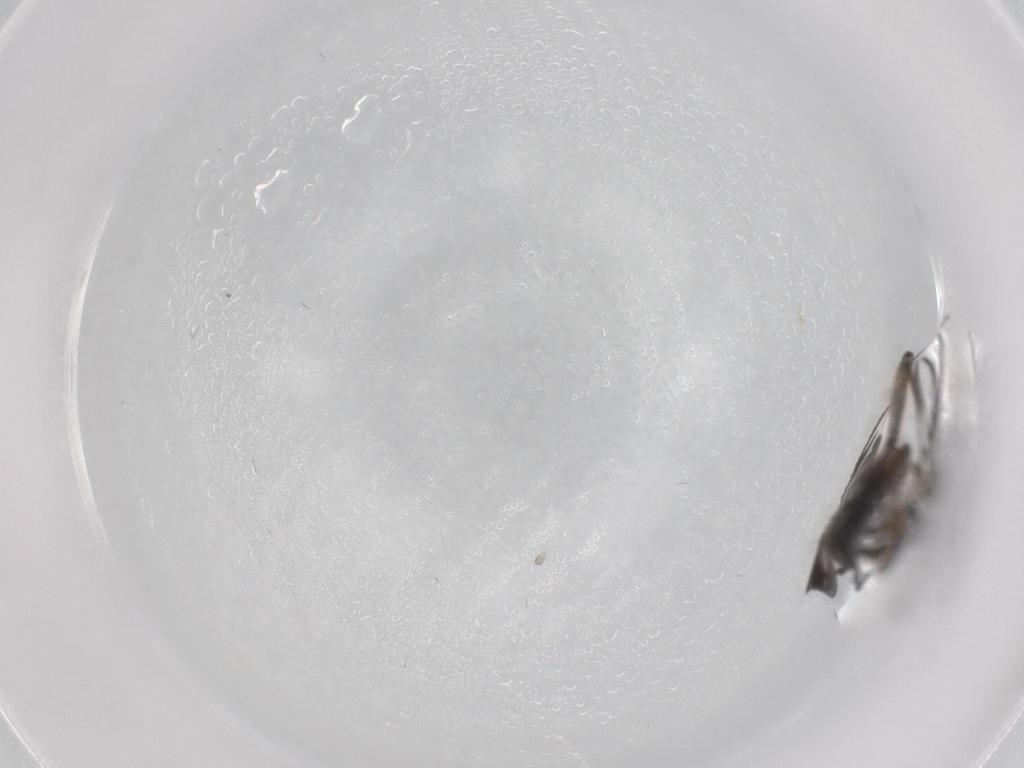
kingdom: Animalia
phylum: Arthropoda
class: Insecta
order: Diptera
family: Sciaridae
